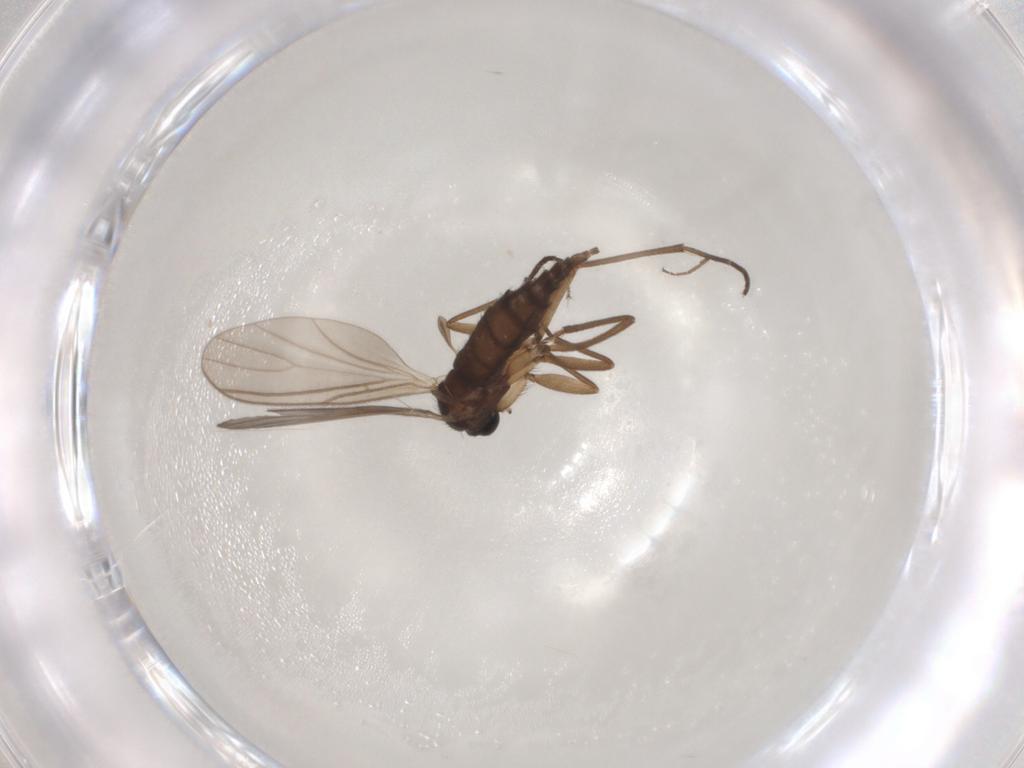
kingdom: Animalia
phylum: Arthropoda
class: Insecta
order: Diptera
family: Sciaridae
